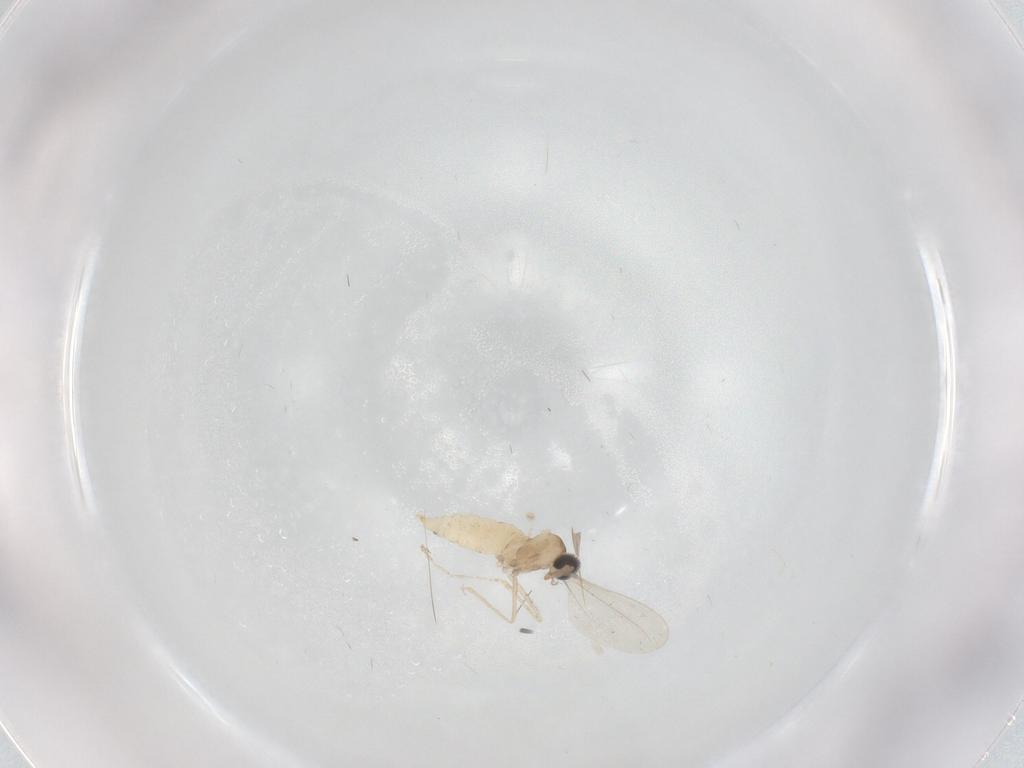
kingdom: Animalia
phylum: Arthropoda
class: Insecta
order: Diptera
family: Cecidomyiidae
